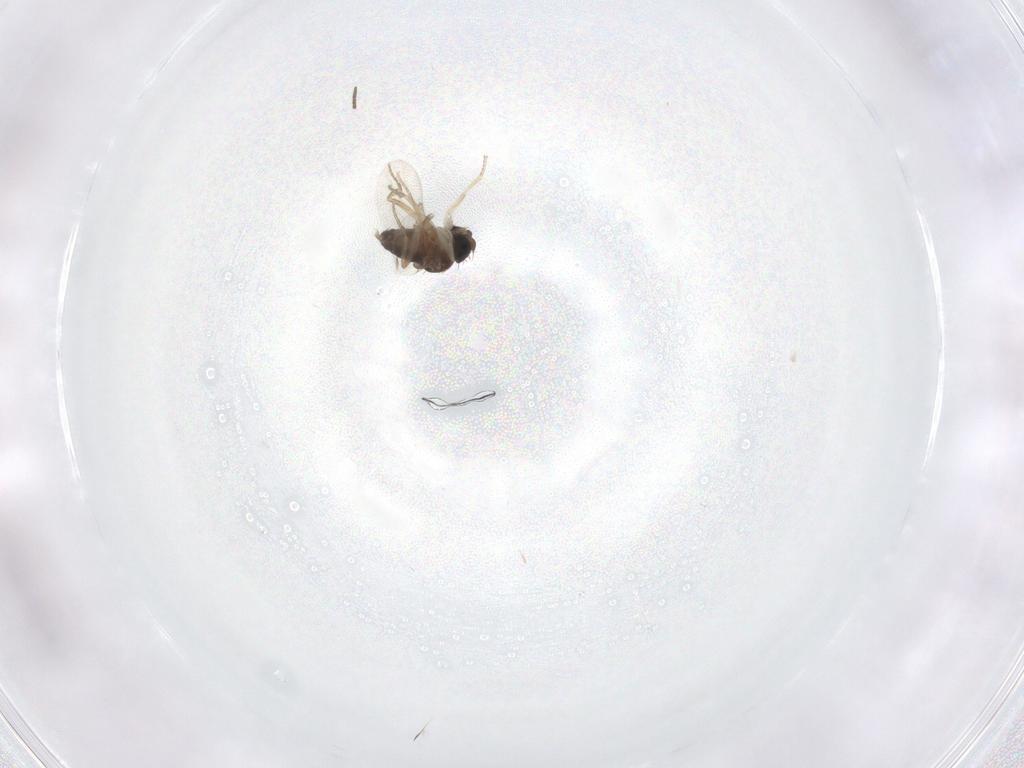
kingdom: Animalia
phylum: Arthropoda
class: Insecta
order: Diptera
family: Phoridae
